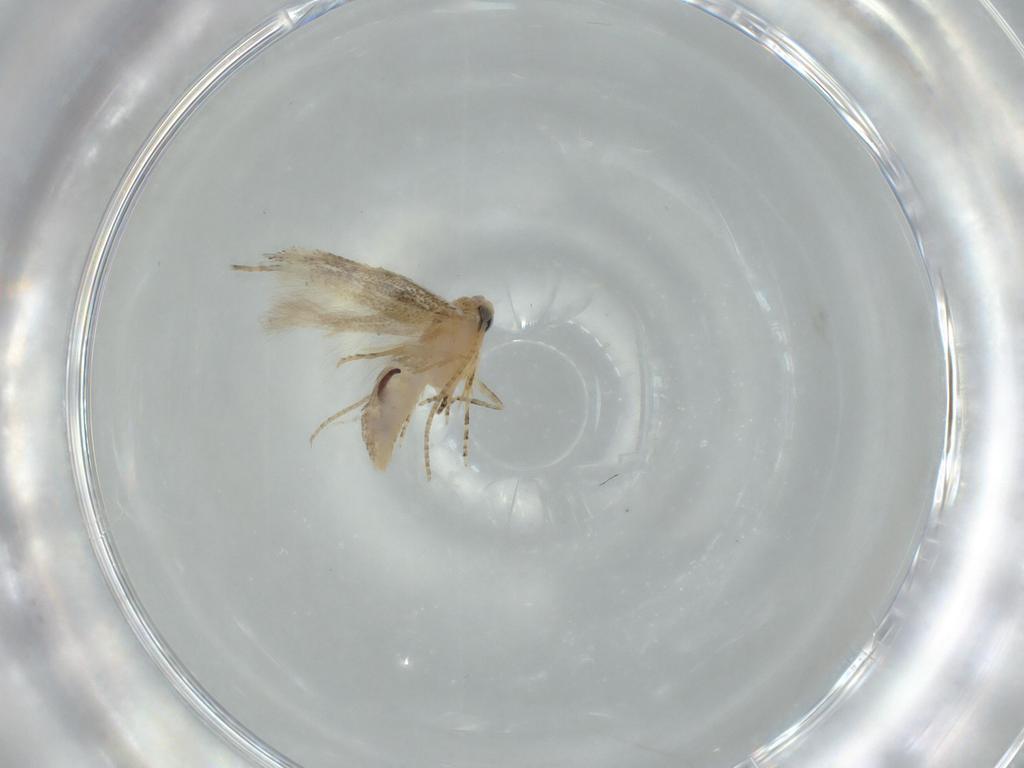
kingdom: Animalia
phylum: Arthropoda
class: Insecta
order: Lepidoptera
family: Bucculatricidae
